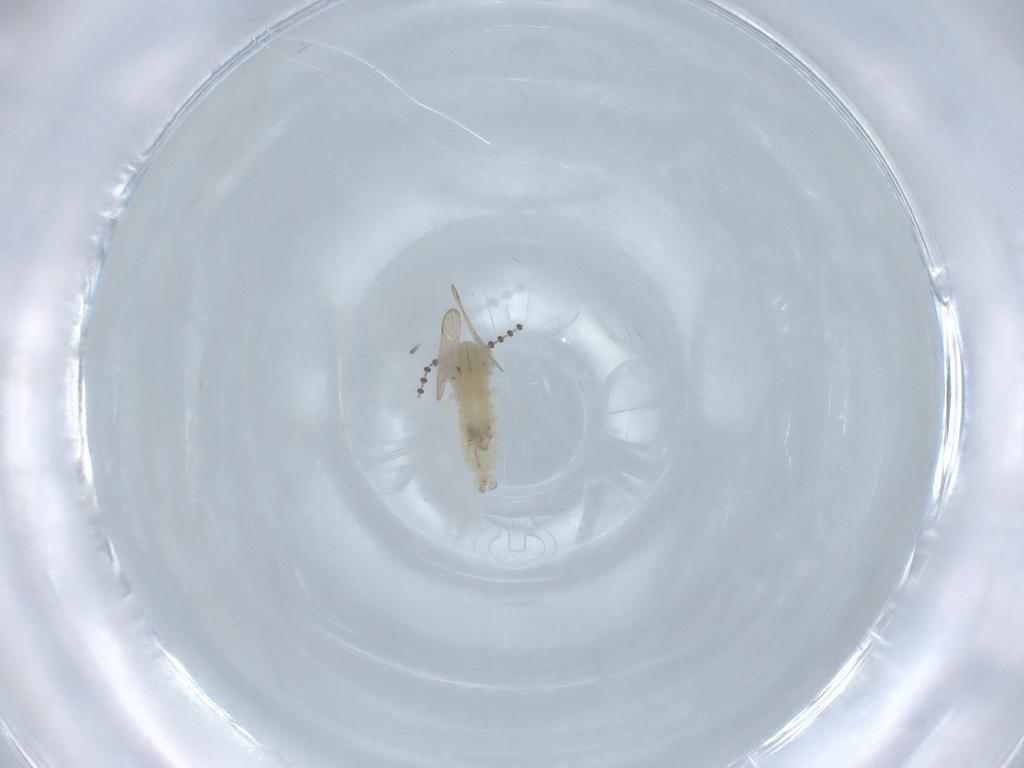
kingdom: Animalia
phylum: Arthropoda
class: Insecta
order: Diptera
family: Psychodidae
